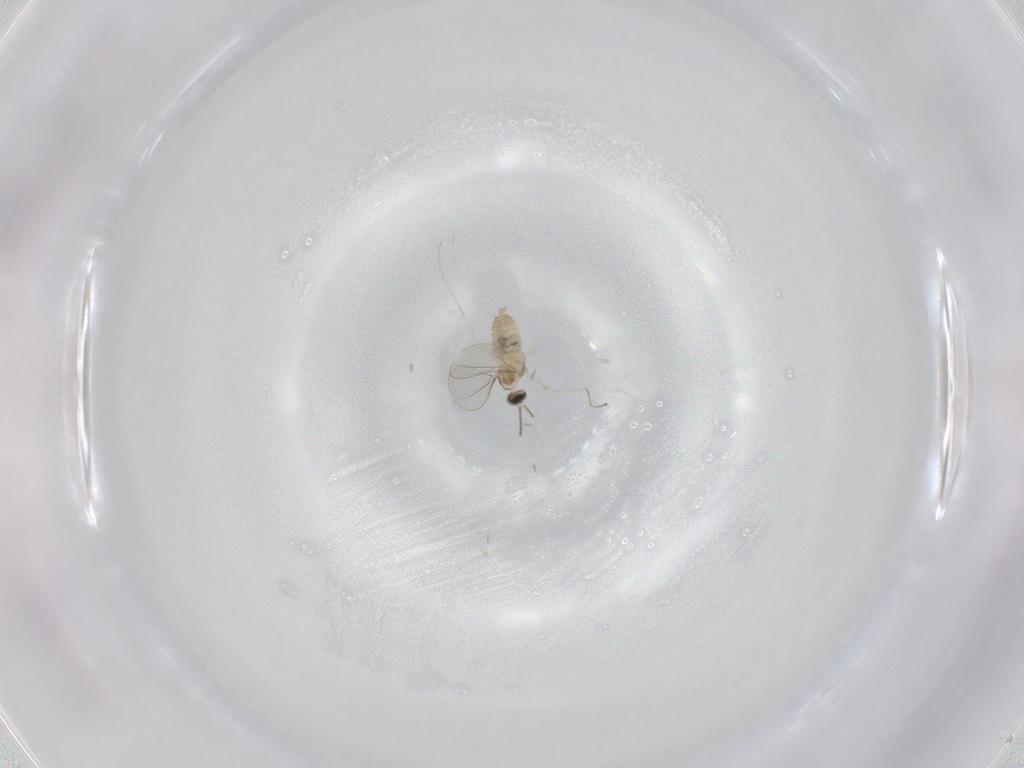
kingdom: Animalia
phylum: Arthropoda
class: Insecta
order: Diptera
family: Cecidomyiidae
